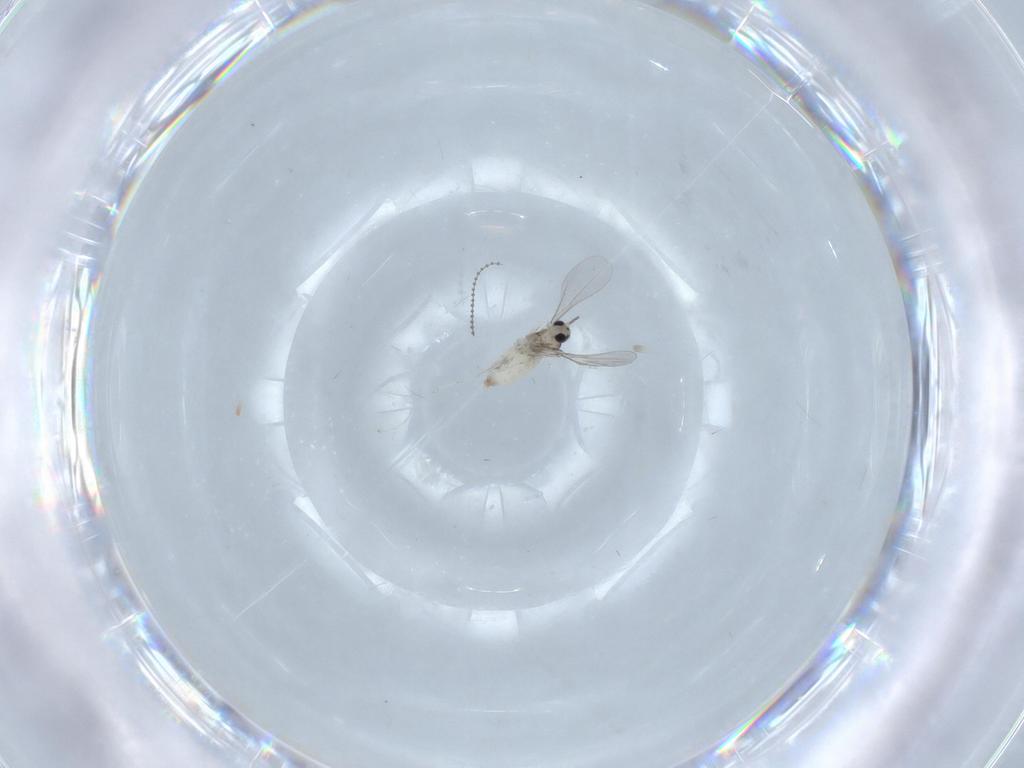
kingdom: Animalia
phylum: Arthropoda
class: Insecta
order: Diptera
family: Cecidomyiidae
